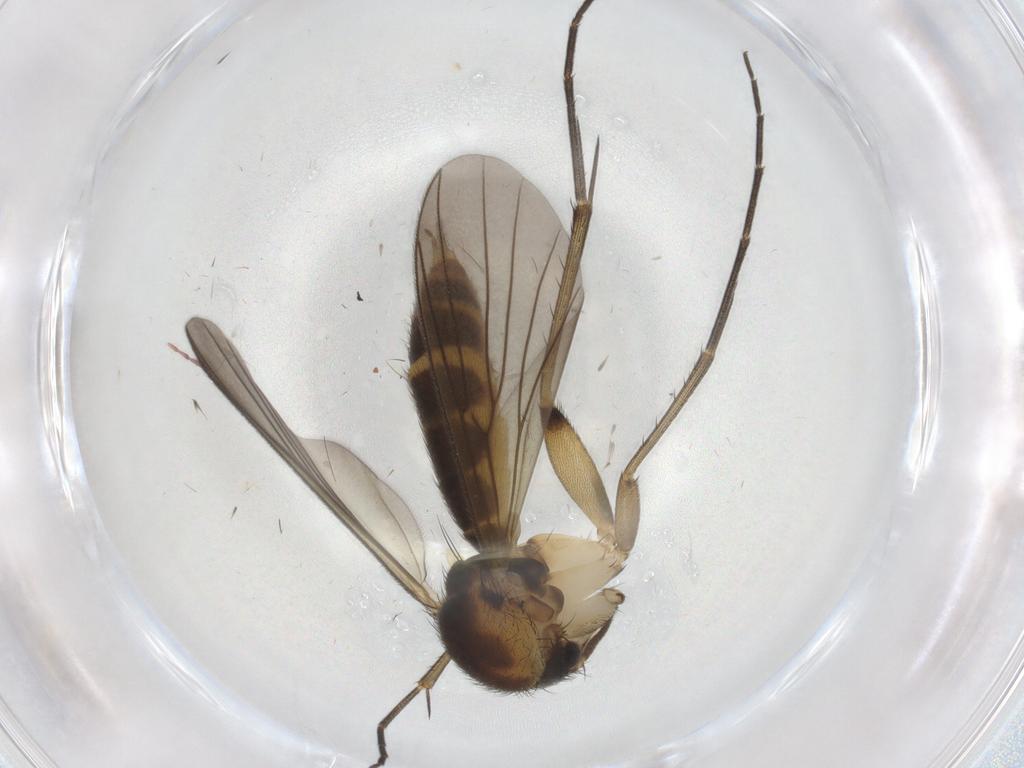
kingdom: Animalia
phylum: Arthropoda
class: Insecta
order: Diptera
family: Mycetophilidae
